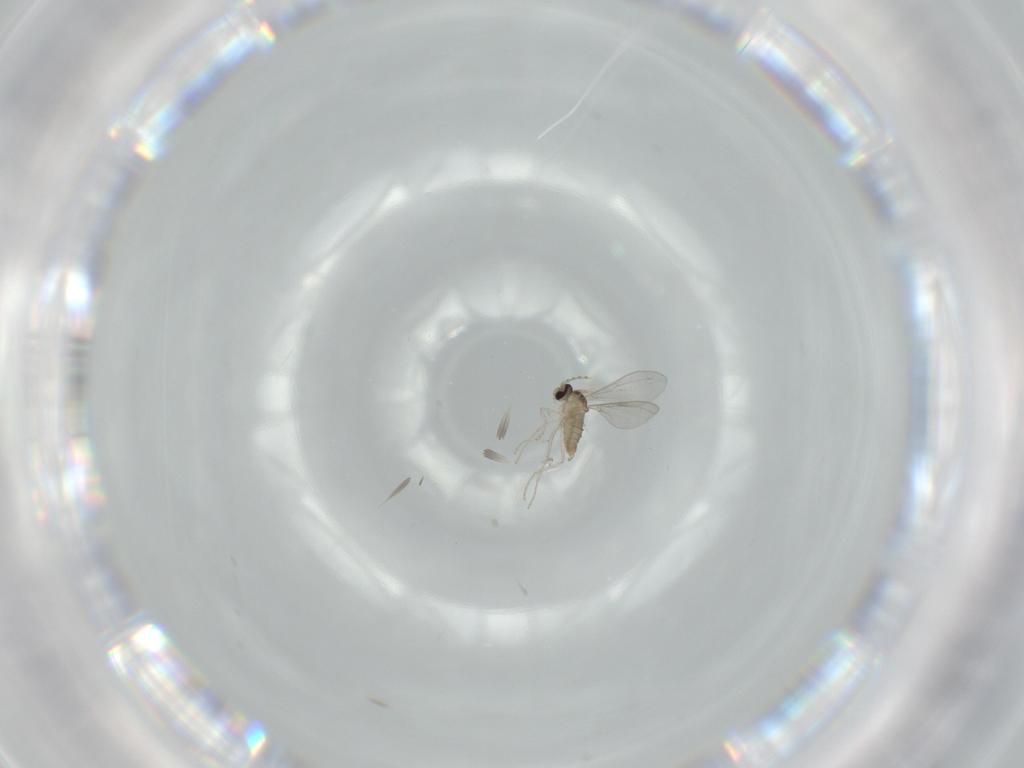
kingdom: Animalia
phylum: Arthropoda
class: Insecta
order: Diptera
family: Cecidomyiidae
